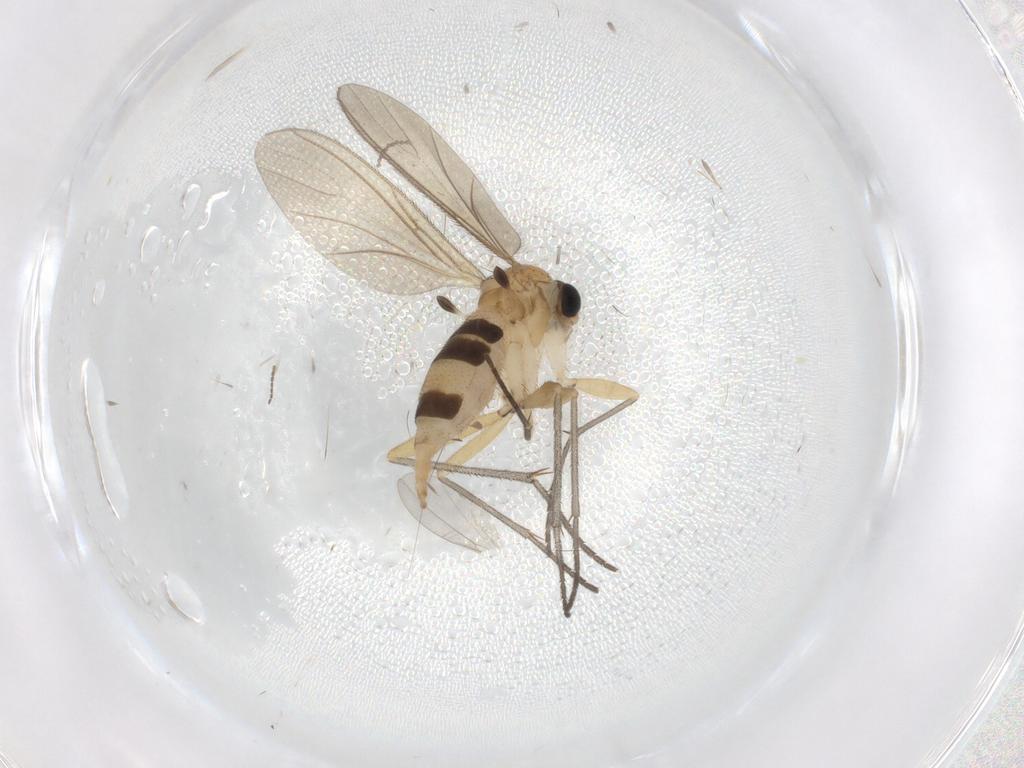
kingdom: Animalia
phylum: Arthropoda
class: Insecta
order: Diptera
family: Sciaridae
